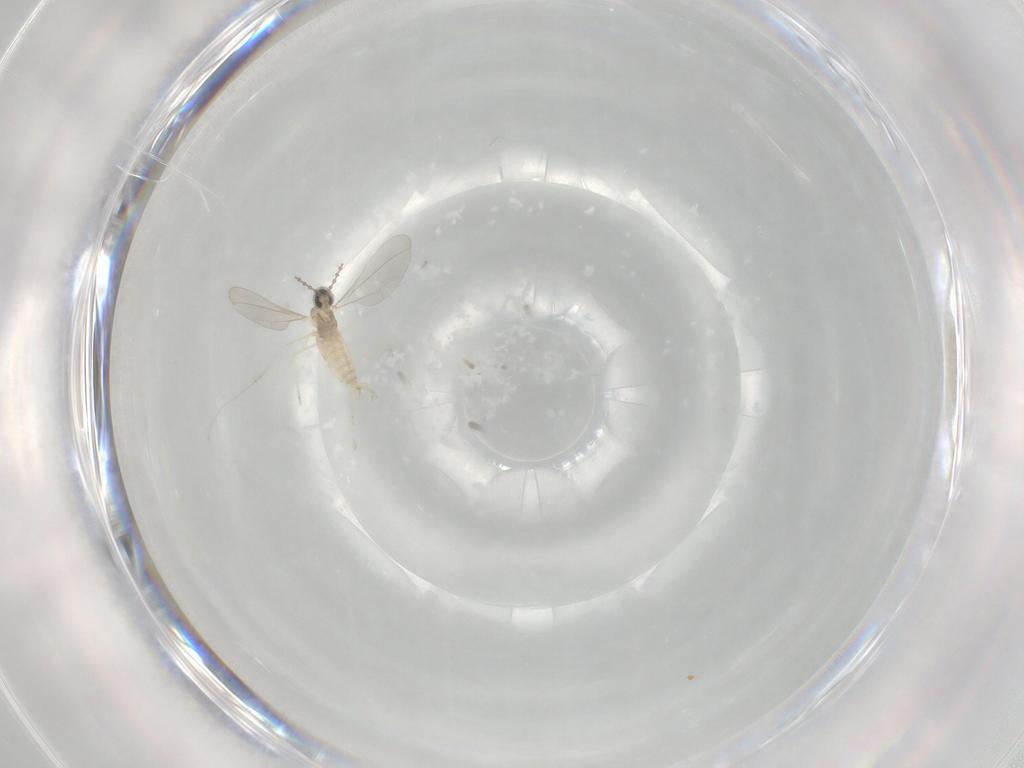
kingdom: Animalia
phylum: Arthropoda
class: Insecta
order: Diptera
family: Cecidomyiidae
